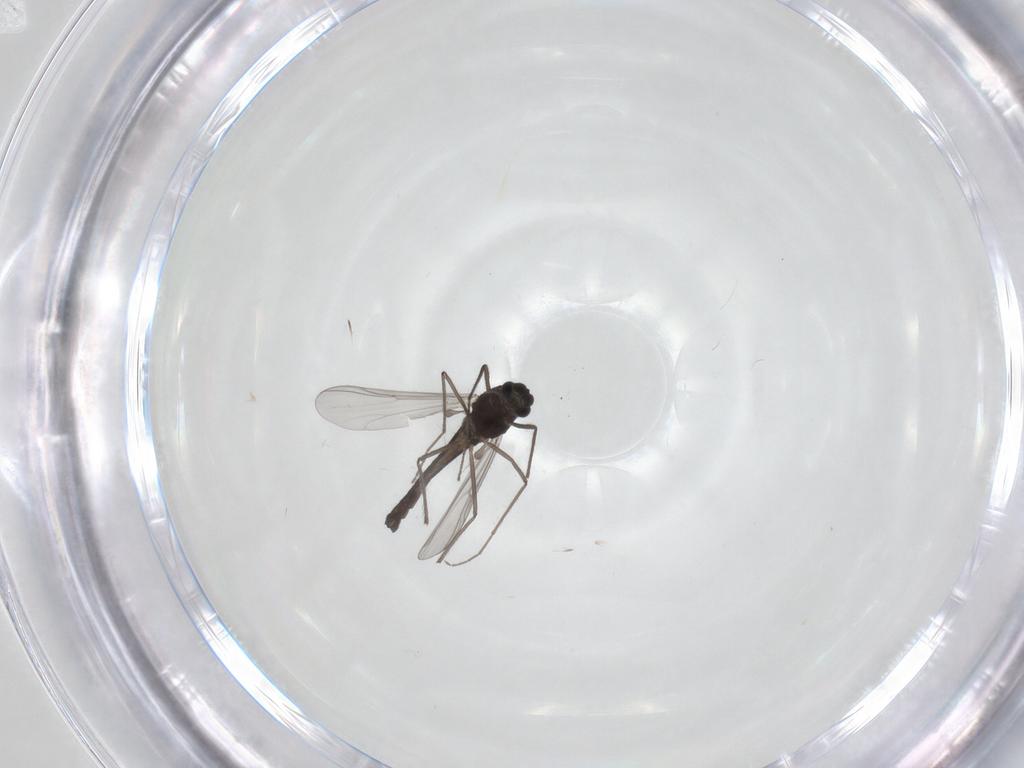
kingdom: Animalia
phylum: Arthropoda
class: Insecta
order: Diptera
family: Chironomidae
